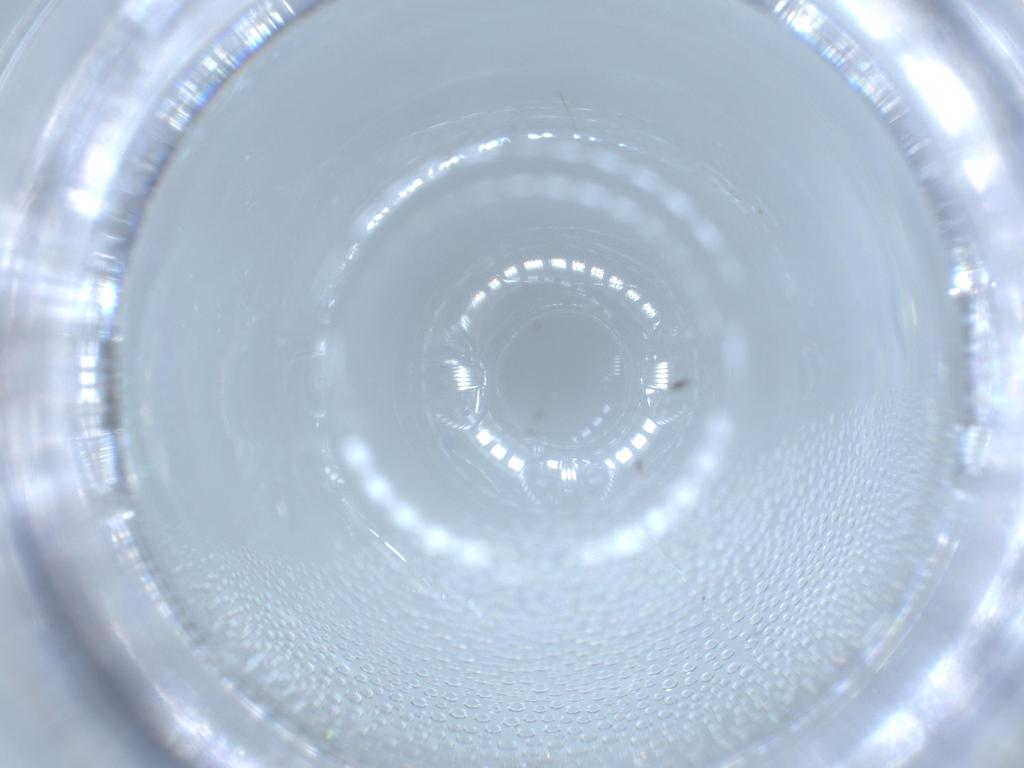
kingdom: Animalia
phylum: Arthropoda
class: Insecta
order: Diptera
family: Cecidomyiidae
